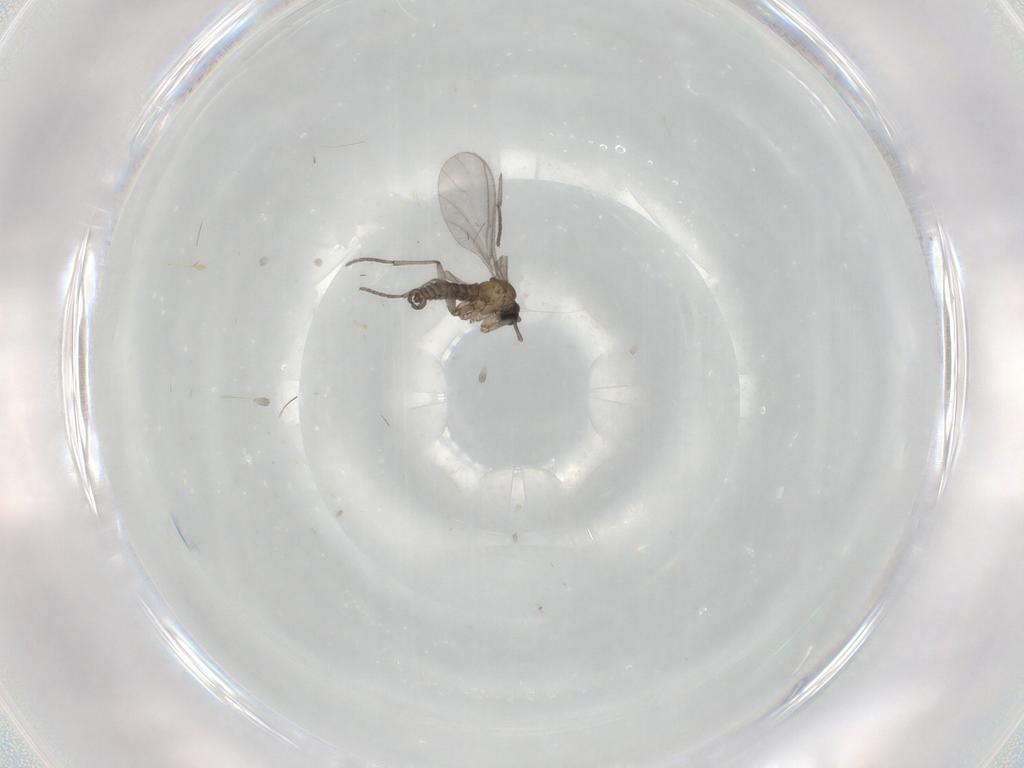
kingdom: Animalia
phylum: Arthropoda
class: Insecta
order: Diptera
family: Sciaridae
